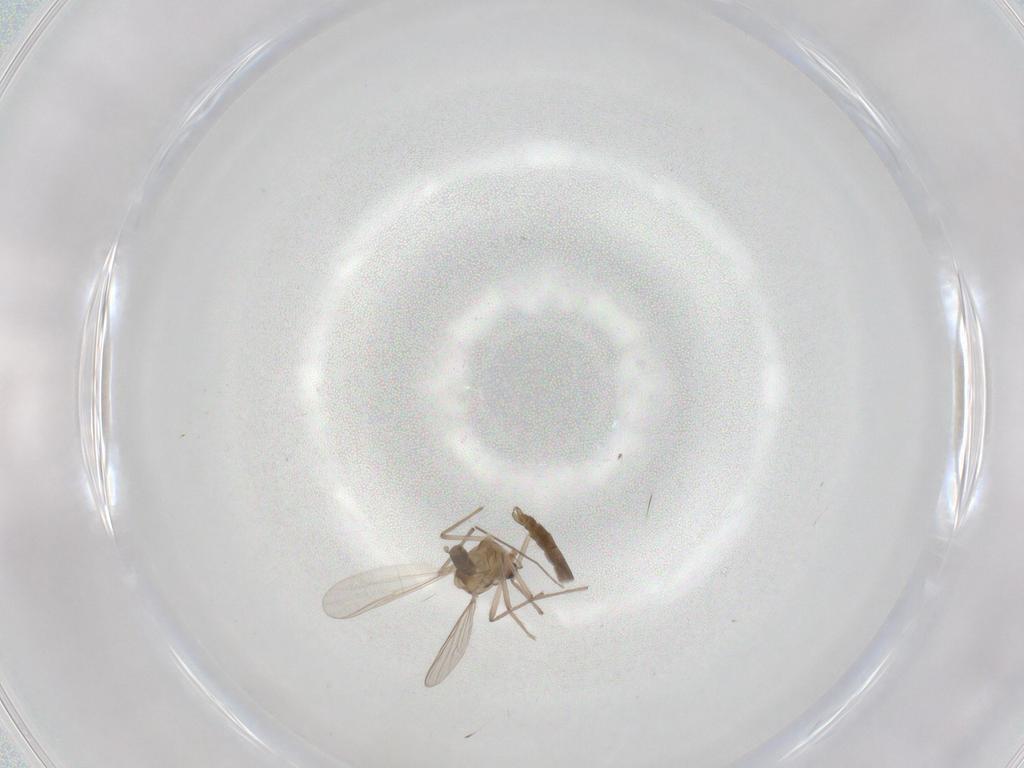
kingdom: Animalia
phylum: Arthropoda
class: Insecta
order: Diptera
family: Chironomidae
